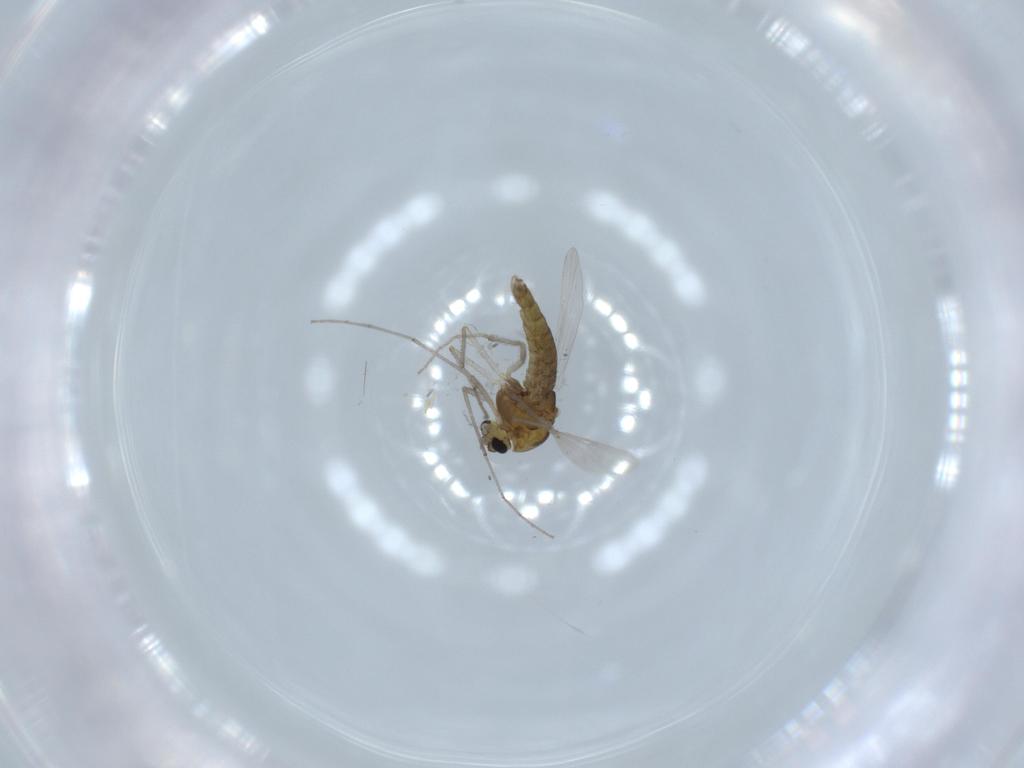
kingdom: Animalia
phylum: Arthropoda
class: Insecta
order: Diptera
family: Chironomidae
